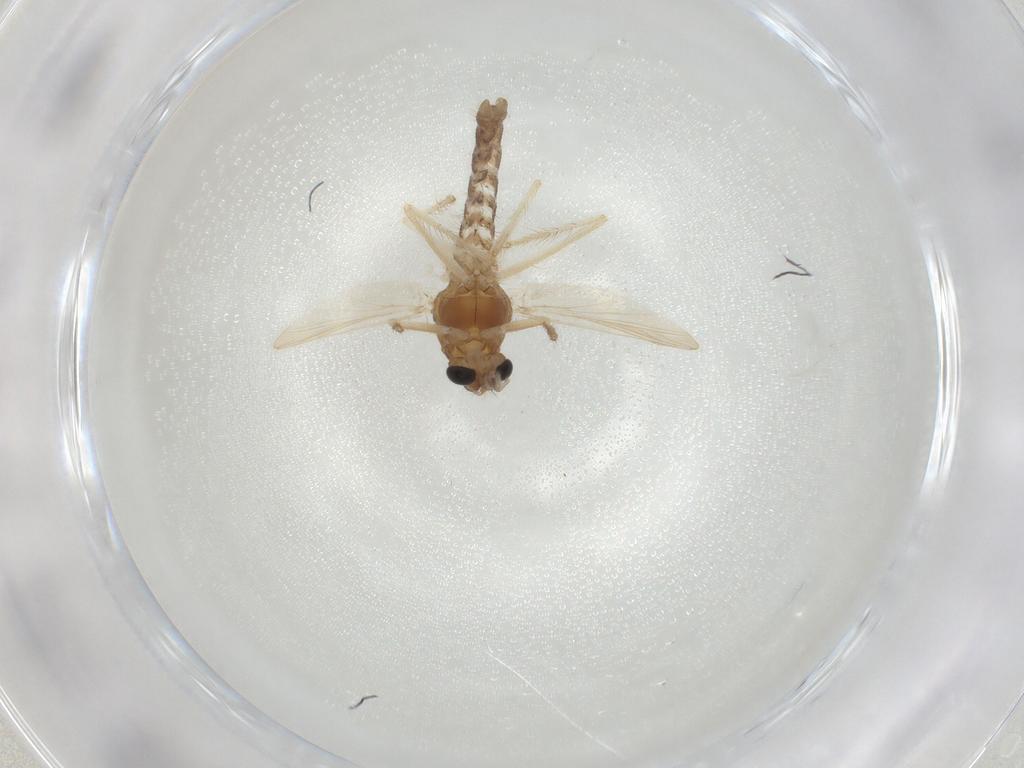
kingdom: Animalia
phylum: Arthropoda
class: Insecta
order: Diptera
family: Chironomidae
